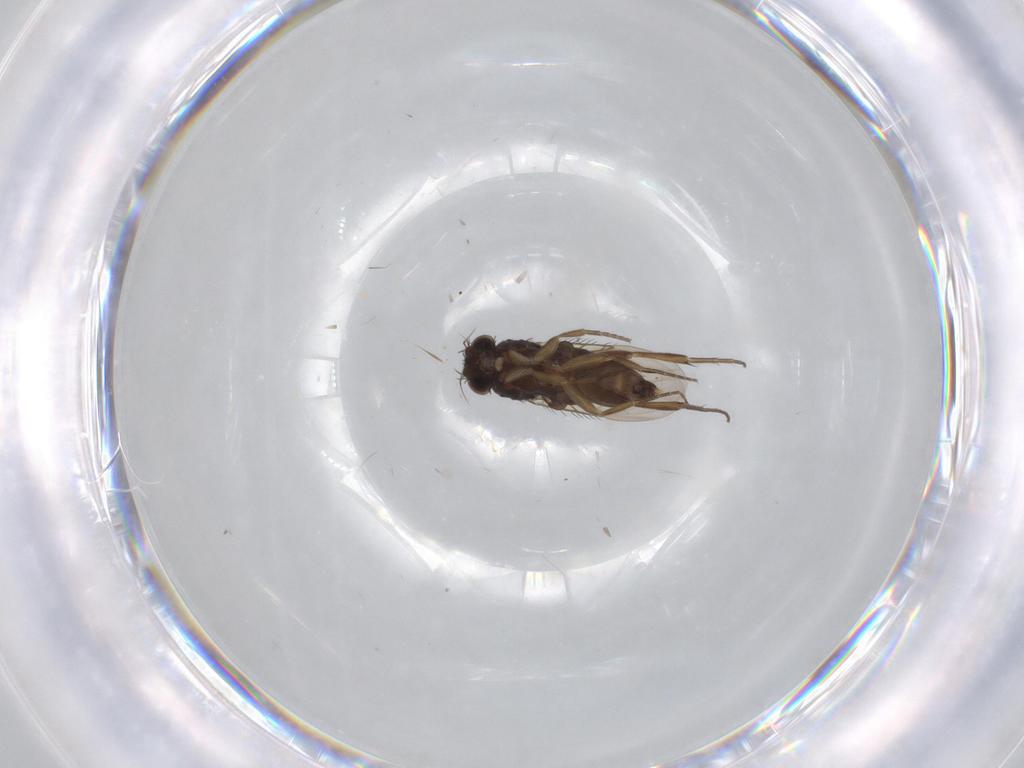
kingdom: Animalia
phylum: Arthropoda
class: Insecta
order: Diptera
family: Phoridae
